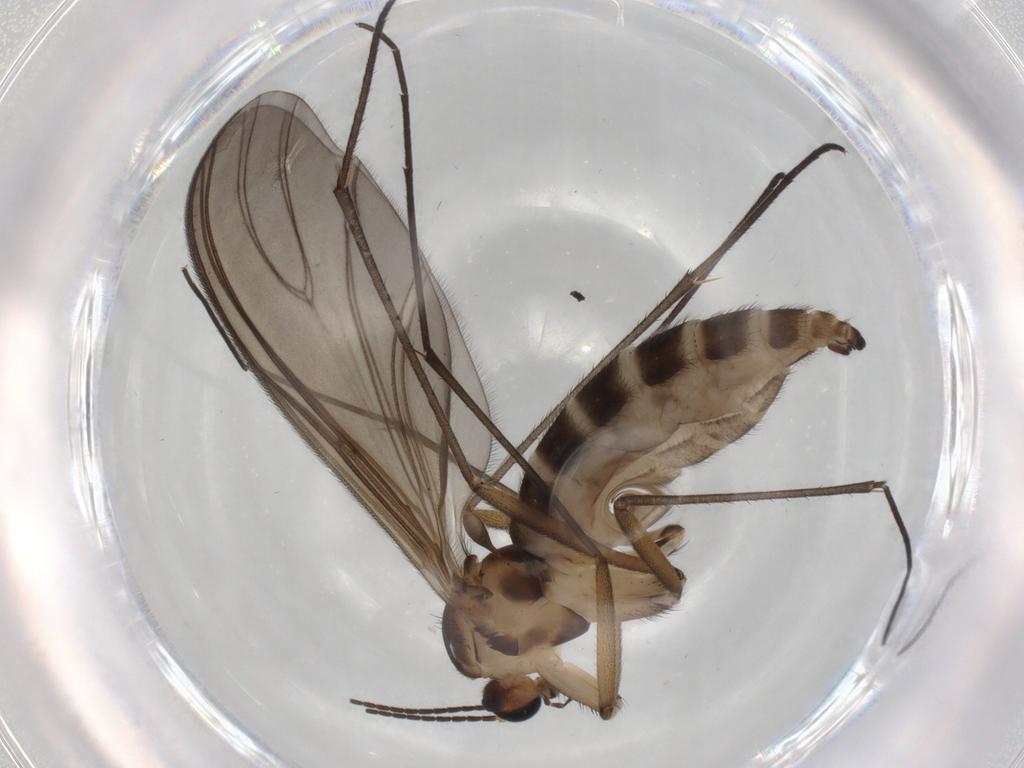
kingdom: Animalia
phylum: Arthropoda
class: Insecta
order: Diptera
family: Sciaridae
